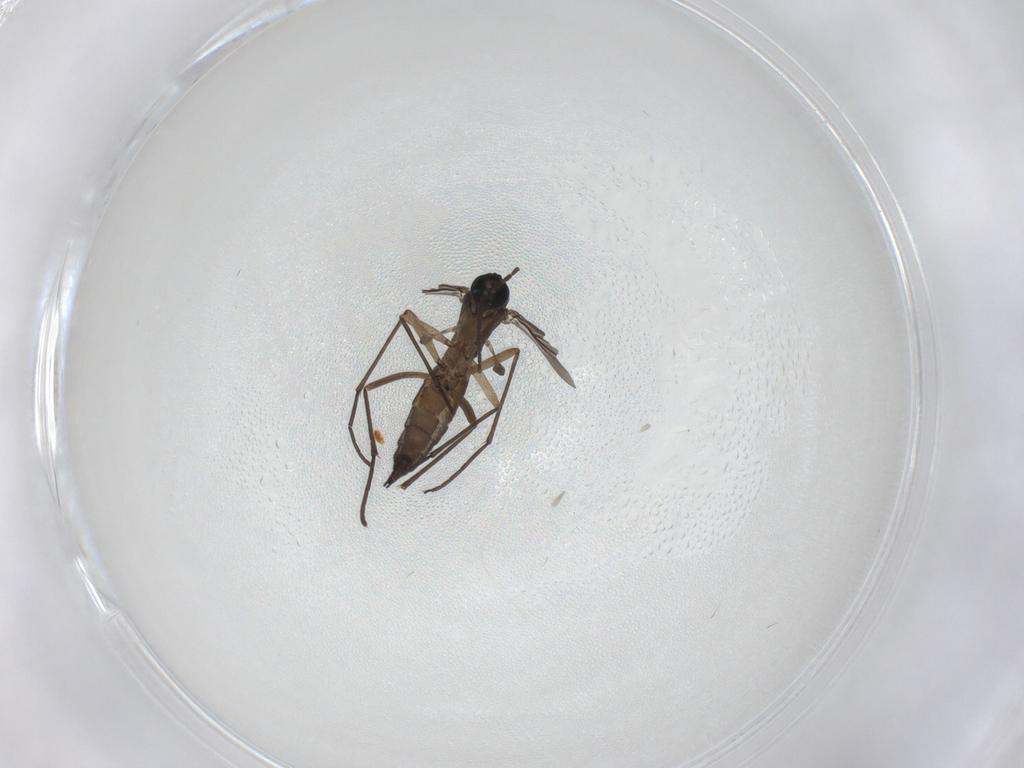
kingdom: Animalia
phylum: Arthropoda
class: Insecta
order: Diptera
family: Sciaridae
